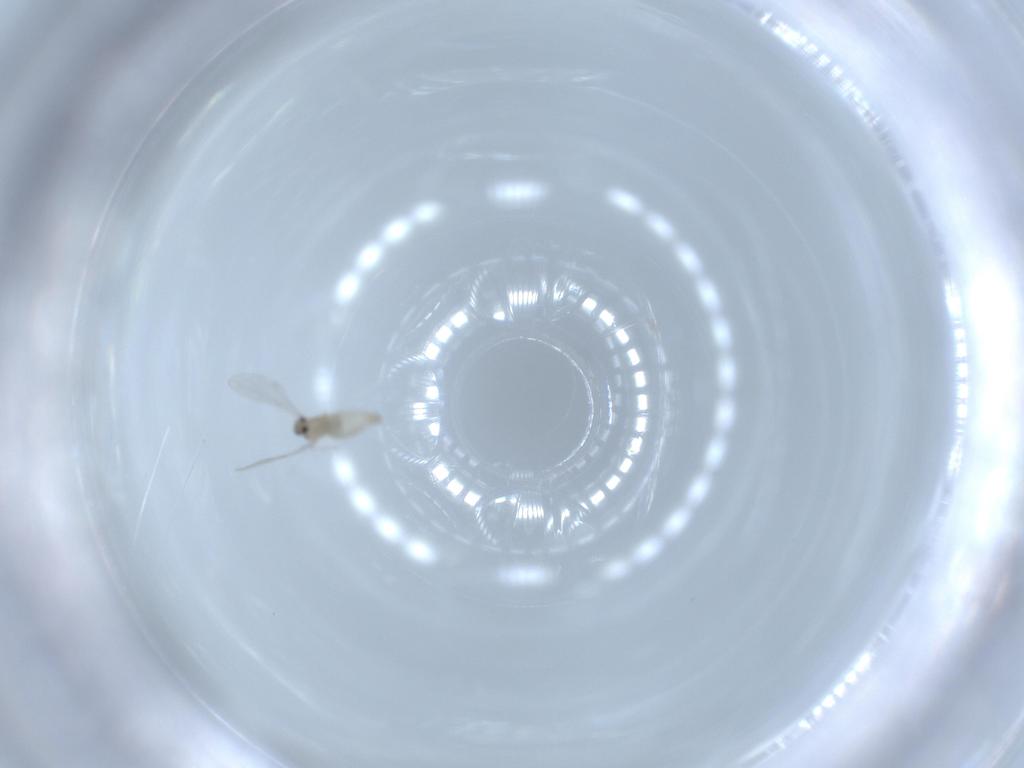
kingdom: Animalia
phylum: Arthropoda
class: Insecta
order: Diptera
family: Cecidomyiidae
